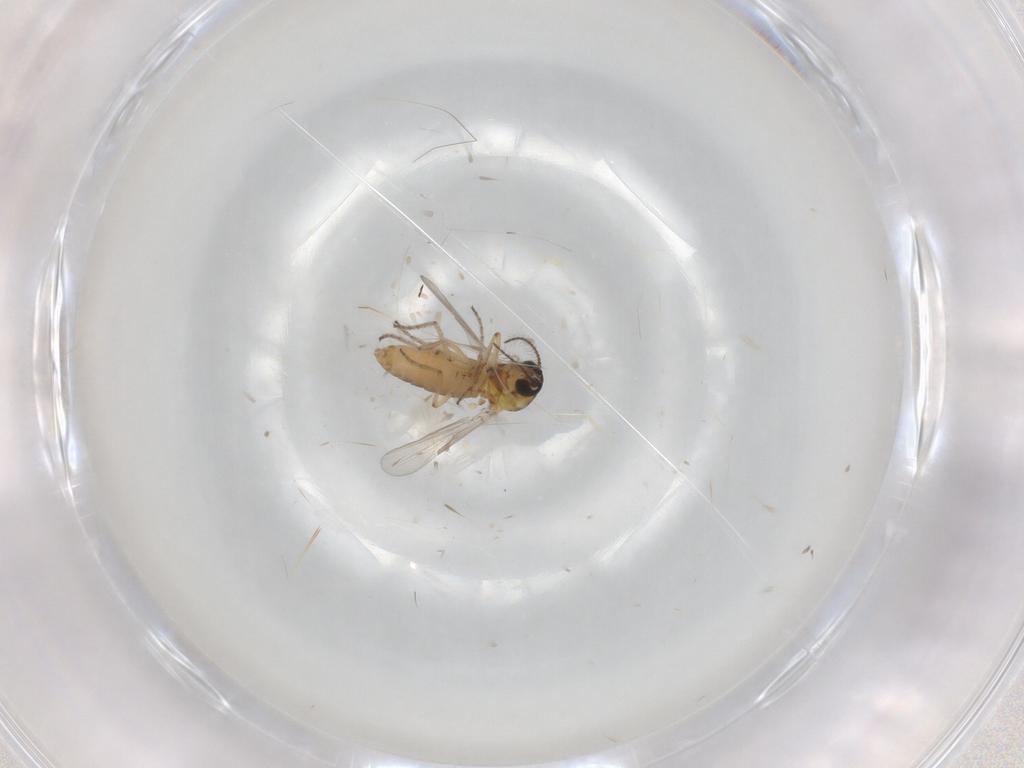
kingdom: Animalia
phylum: Arthropoda
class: Insecta
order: Diptera
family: Ceratopogonidae
